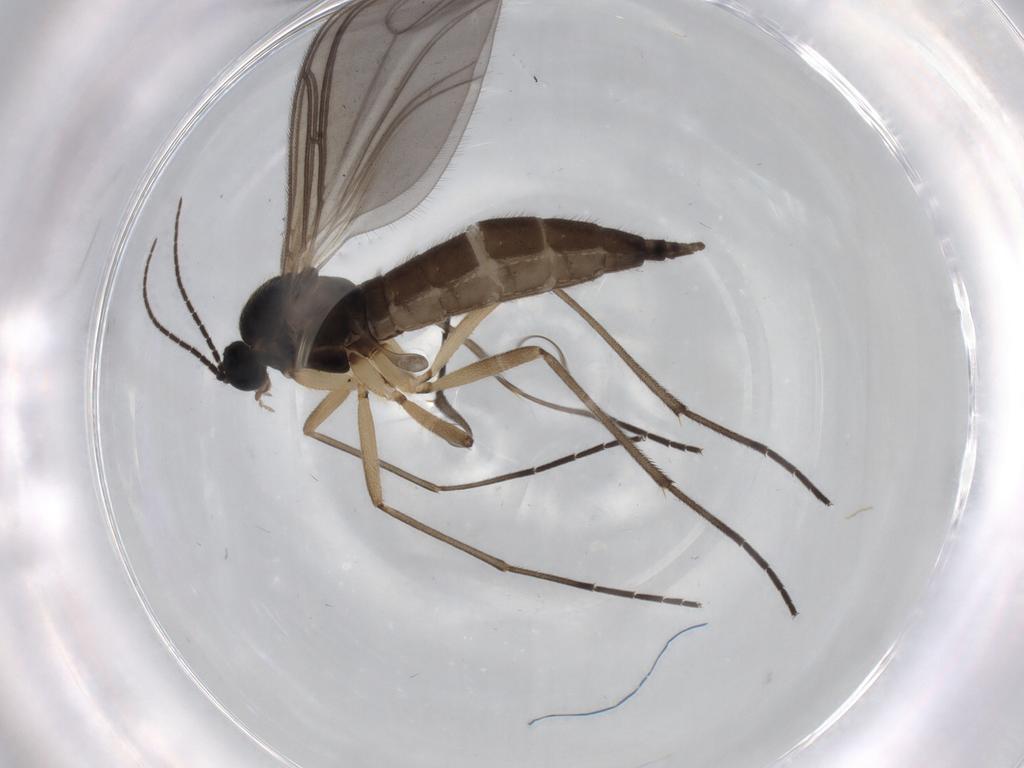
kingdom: Animalia
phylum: Arthropoda
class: Insecta
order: Diptera
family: Sciaridae
